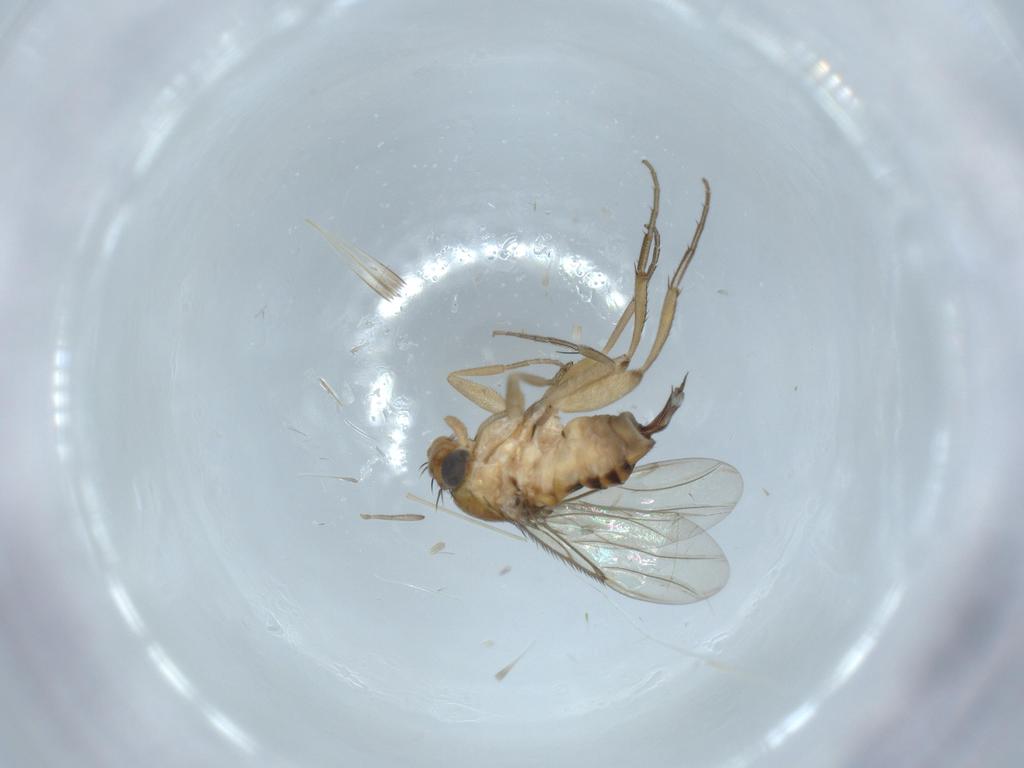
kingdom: Animalia
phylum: Arthropoda
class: Insecta
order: Diptera
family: Phoridae
